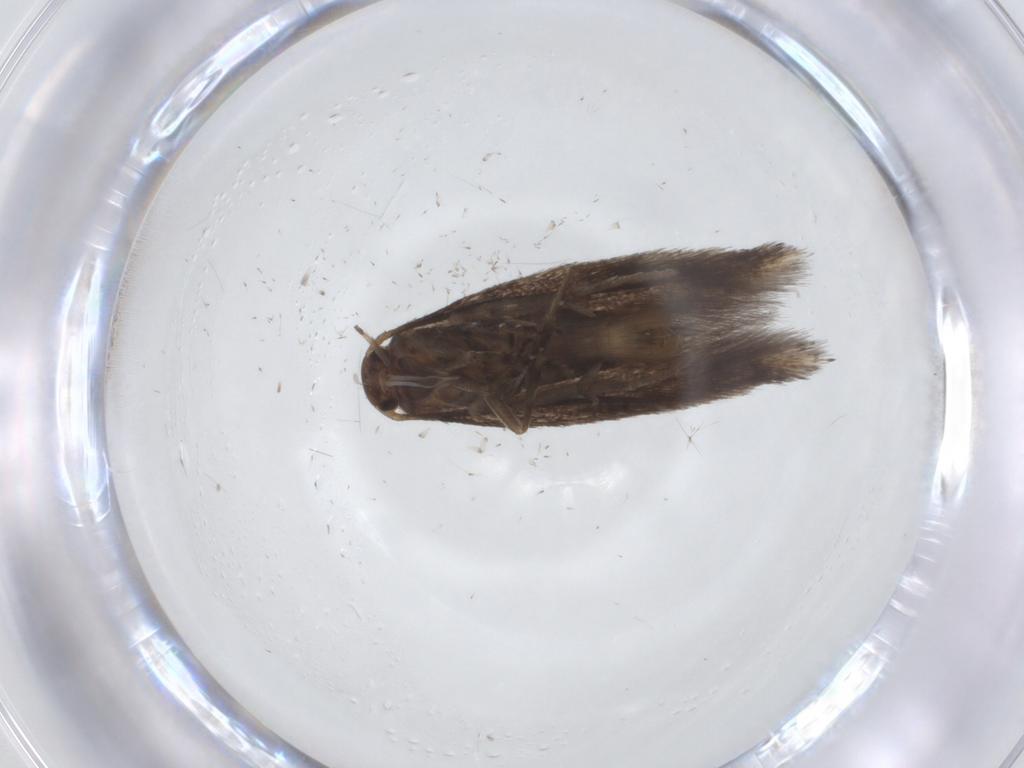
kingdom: Animalia
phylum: Arthropoda
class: Insecta
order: Lepidoptera
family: Elachistidae
